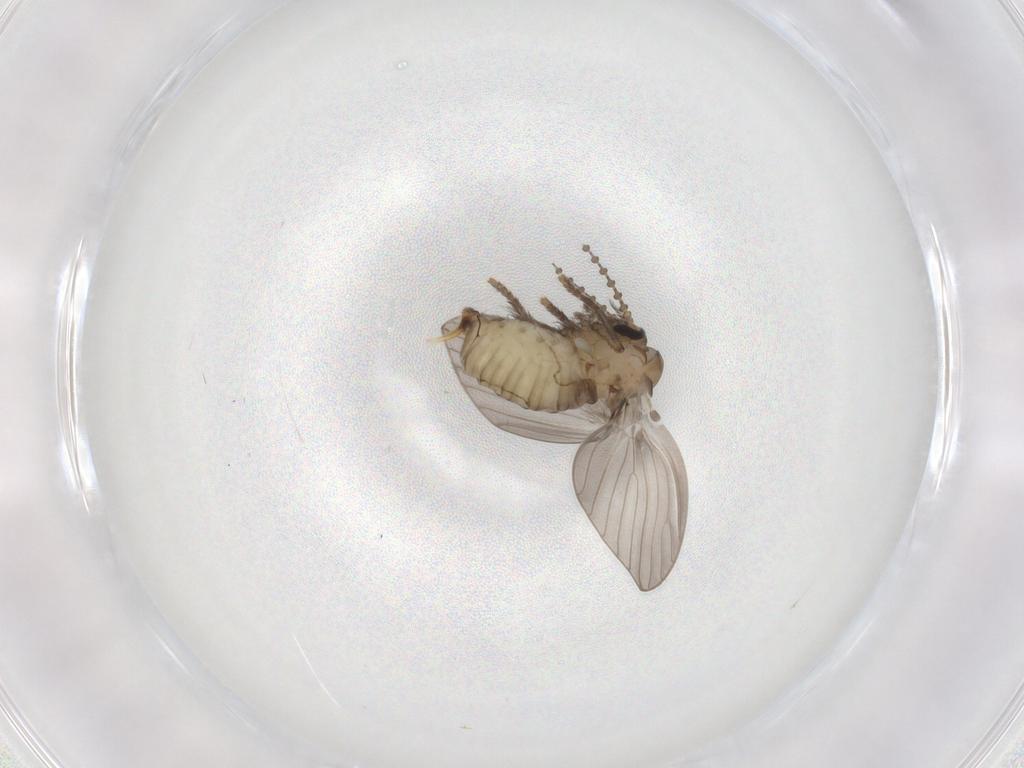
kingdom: Animalia
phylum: Arthropoda
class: Insecta
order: Diptera
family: Psychodidae
